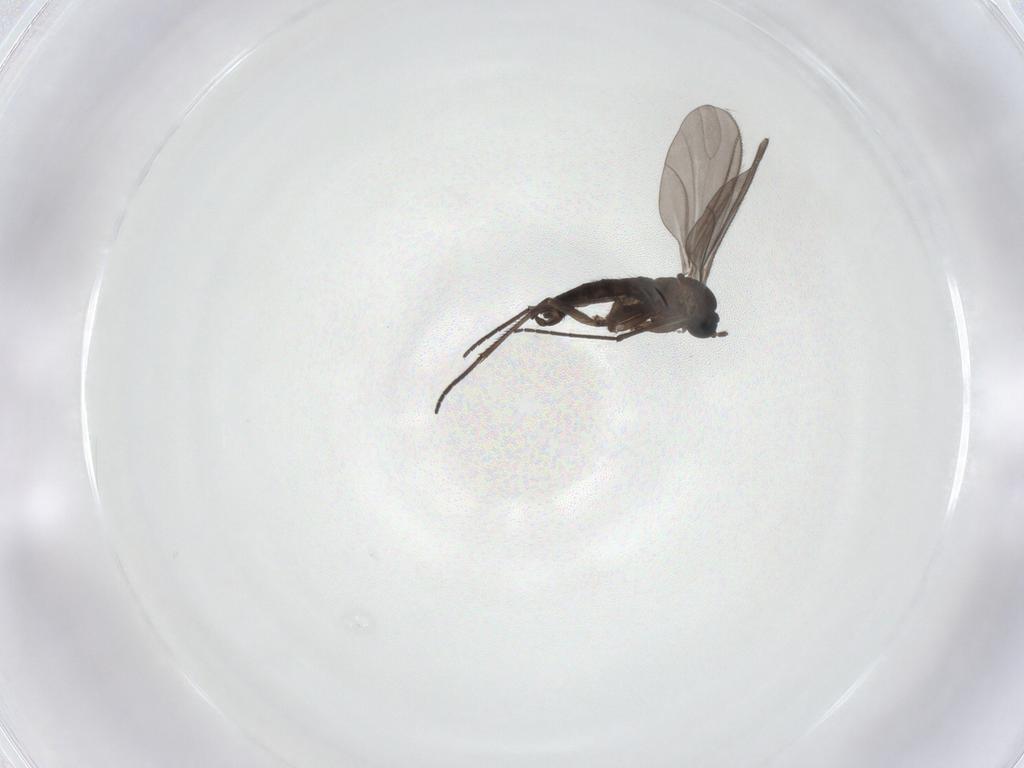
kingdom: Animalia
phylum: Arthropoda
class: Insecta
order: Diptera
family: Sciaridae
